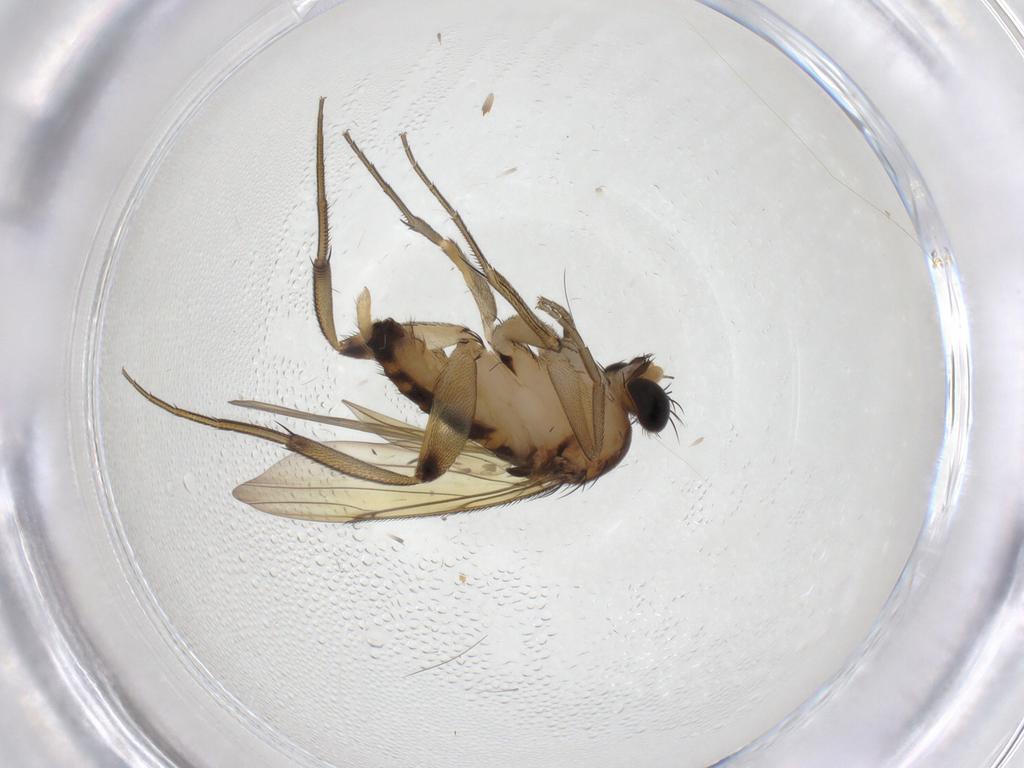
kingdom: Animalia
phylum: Arthropoda
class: Insecta
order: Diptera
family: Periscelididae
